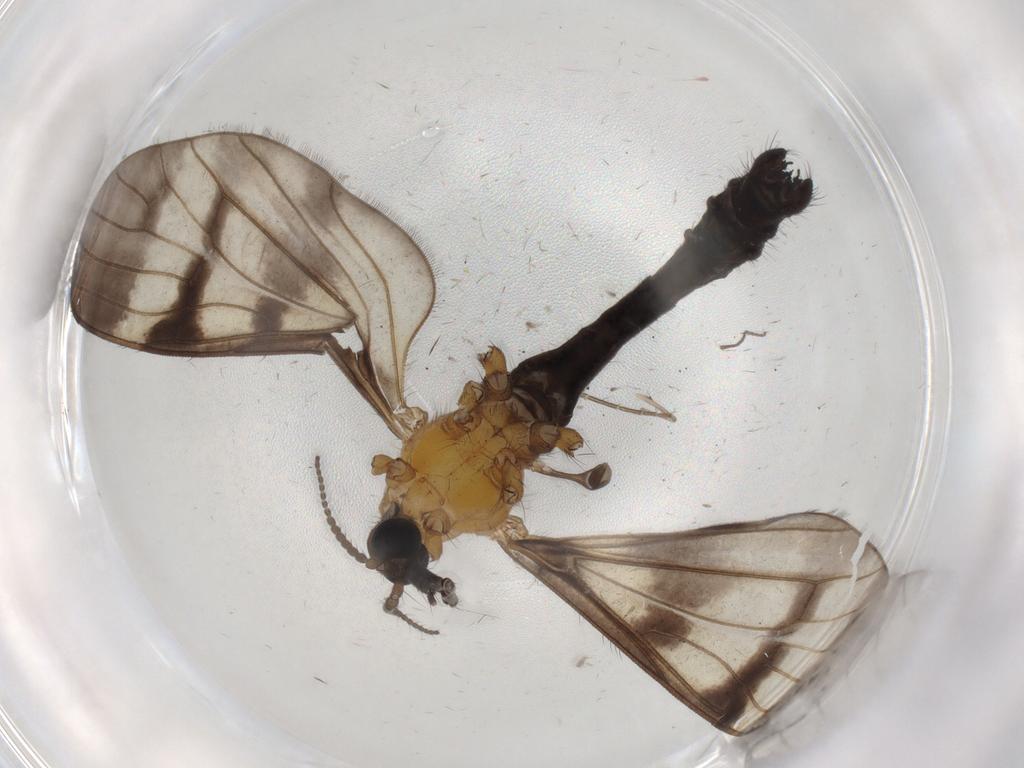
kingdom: Animalia
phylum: Arthropoda
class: Insecta
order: Diptera
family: Limoniidae
